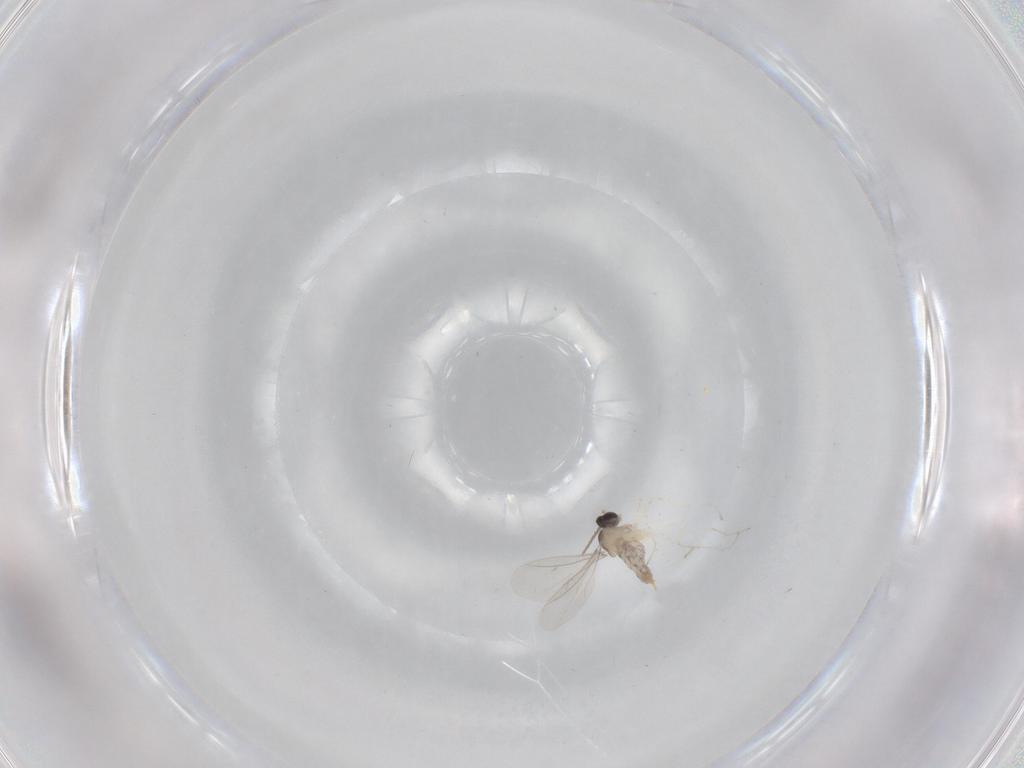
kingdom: Animalia
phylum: Arthropoda
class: Insecta
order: Diptera
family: Cecidomyiidae
